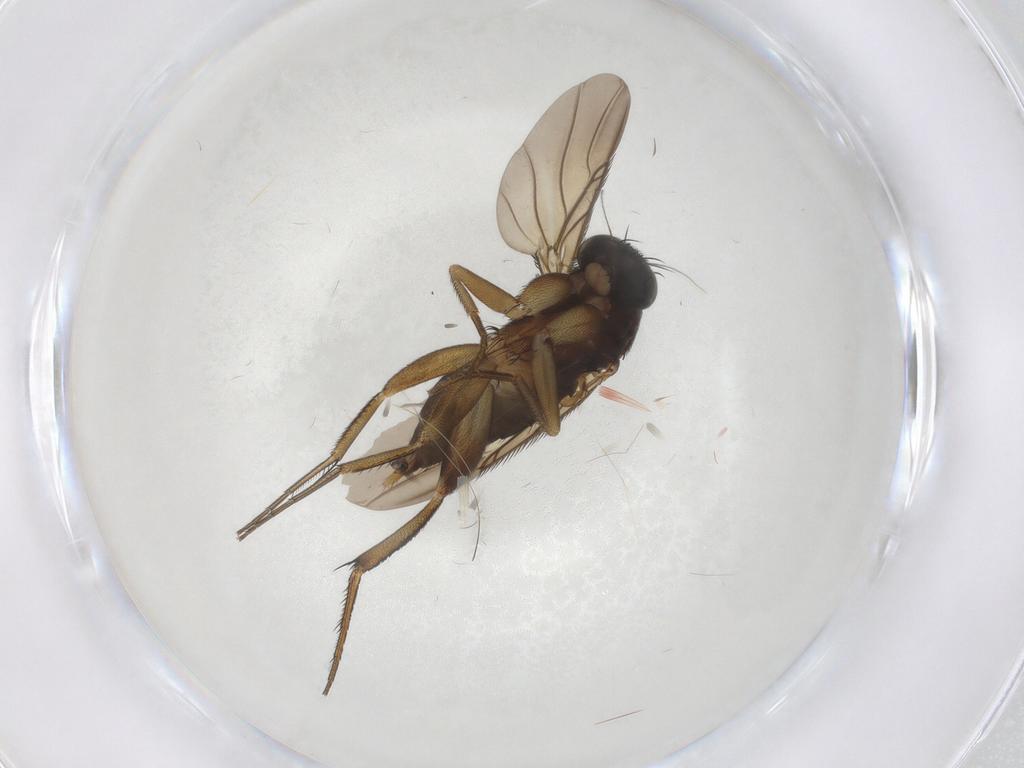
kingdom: Animalia
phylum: Arthropoda
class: Insecta
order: Diptera
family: Phoridae
